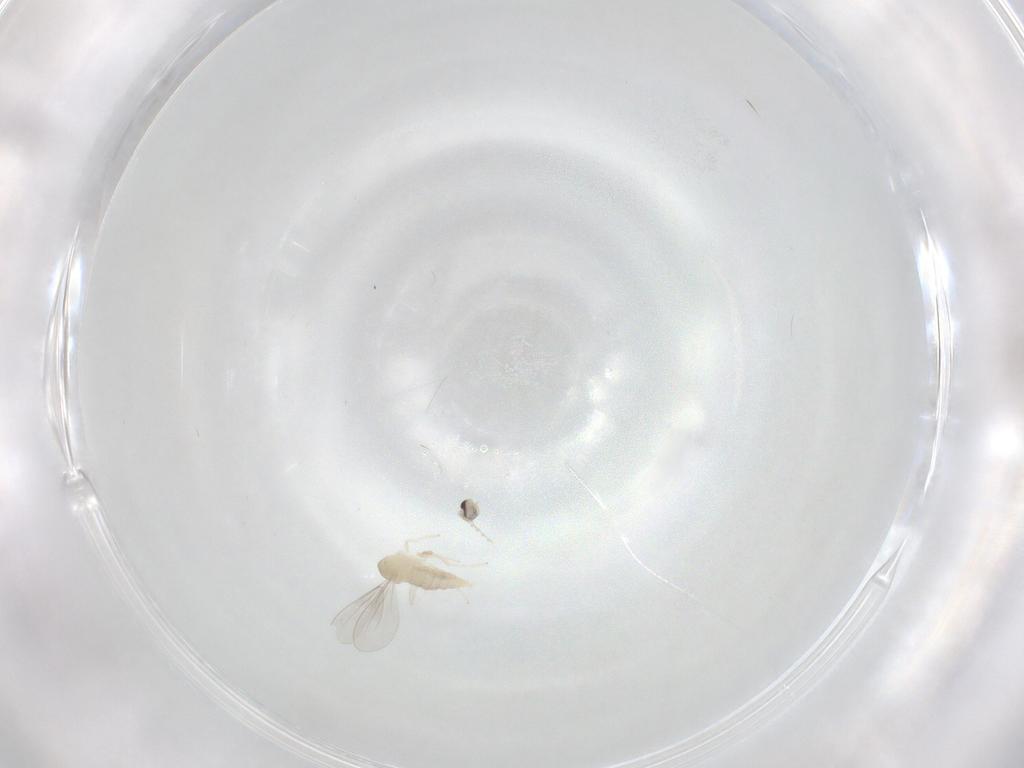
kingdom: Animalia
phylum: Arthropoda
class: Insecta
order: Diptera
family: Cecidomyiidae
